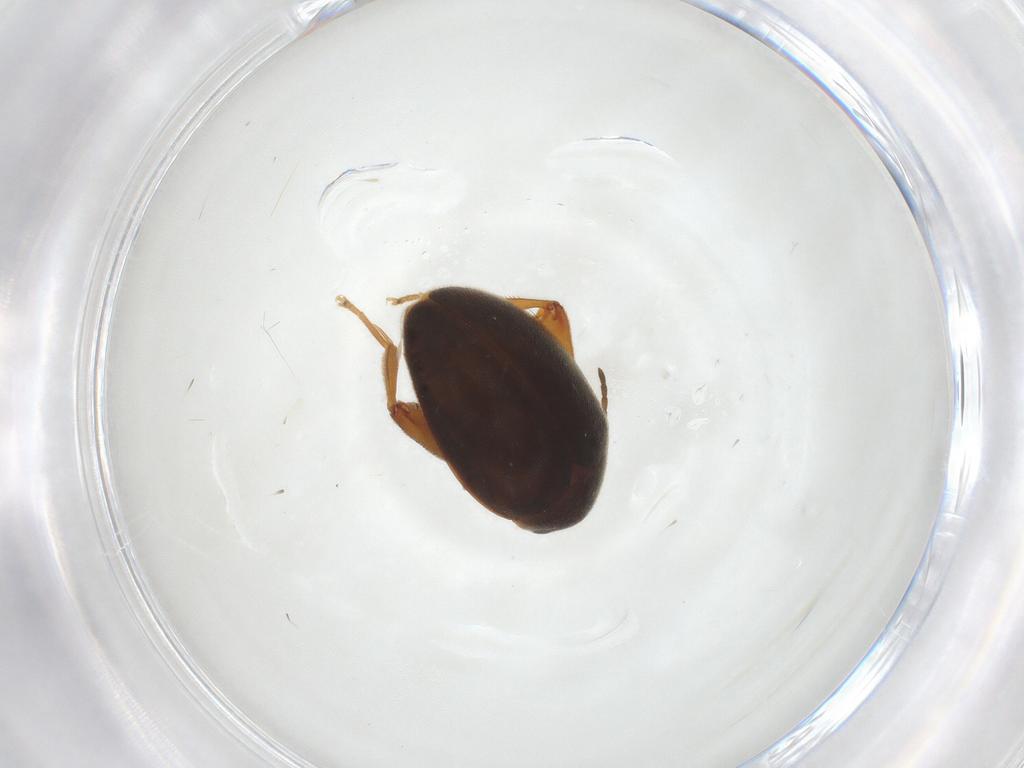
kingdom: Animalia
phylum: Arthropoda
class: Insecta
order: Coleoptera
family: Scirtidae
